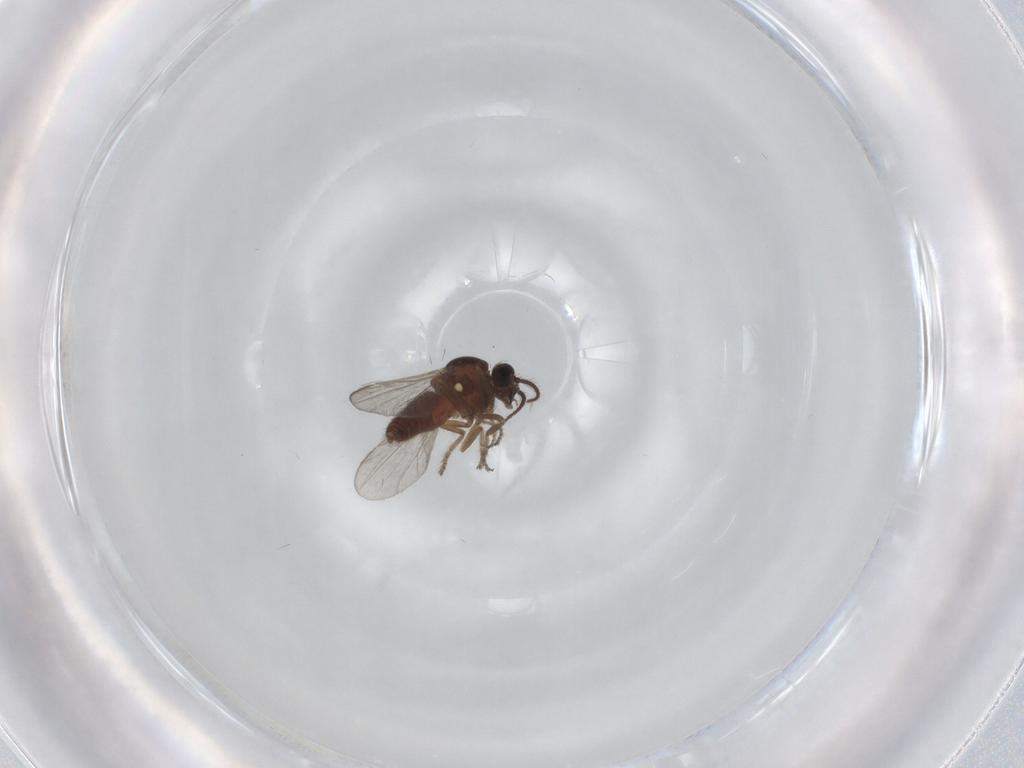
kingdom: Animalia
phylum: Arthropoda
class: Insecta
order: Diptera
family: Ceratopogonidae
